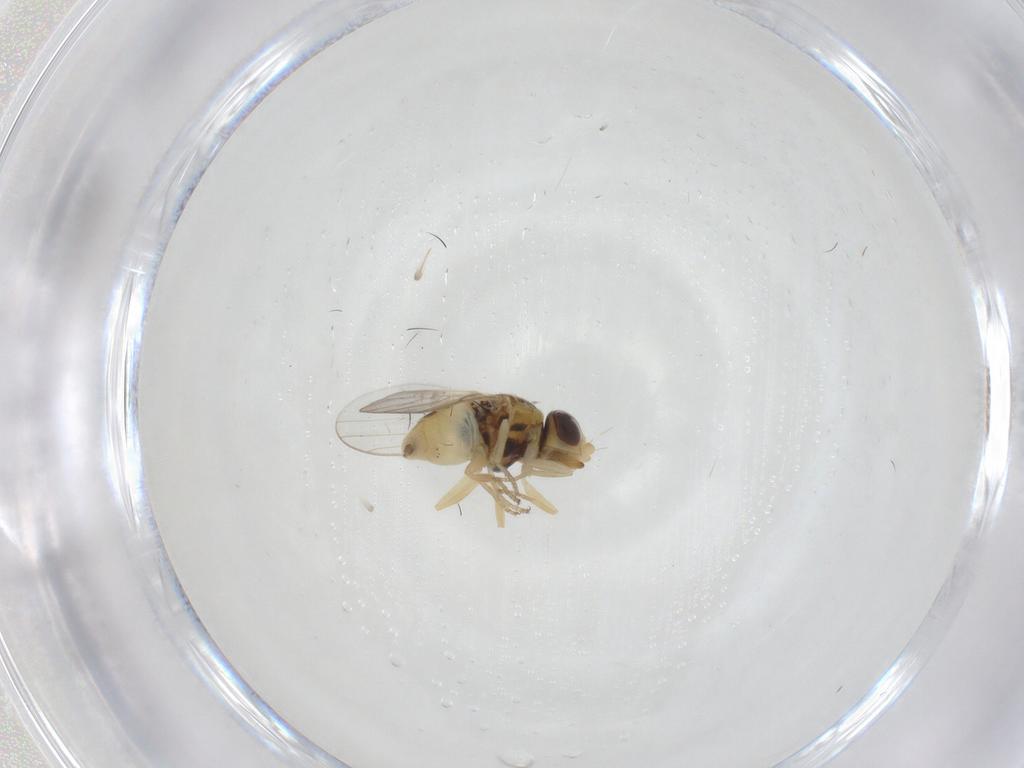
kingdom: Animalia
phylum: Arthropoda
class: Insecta
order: Diptera
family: Chloropidae
